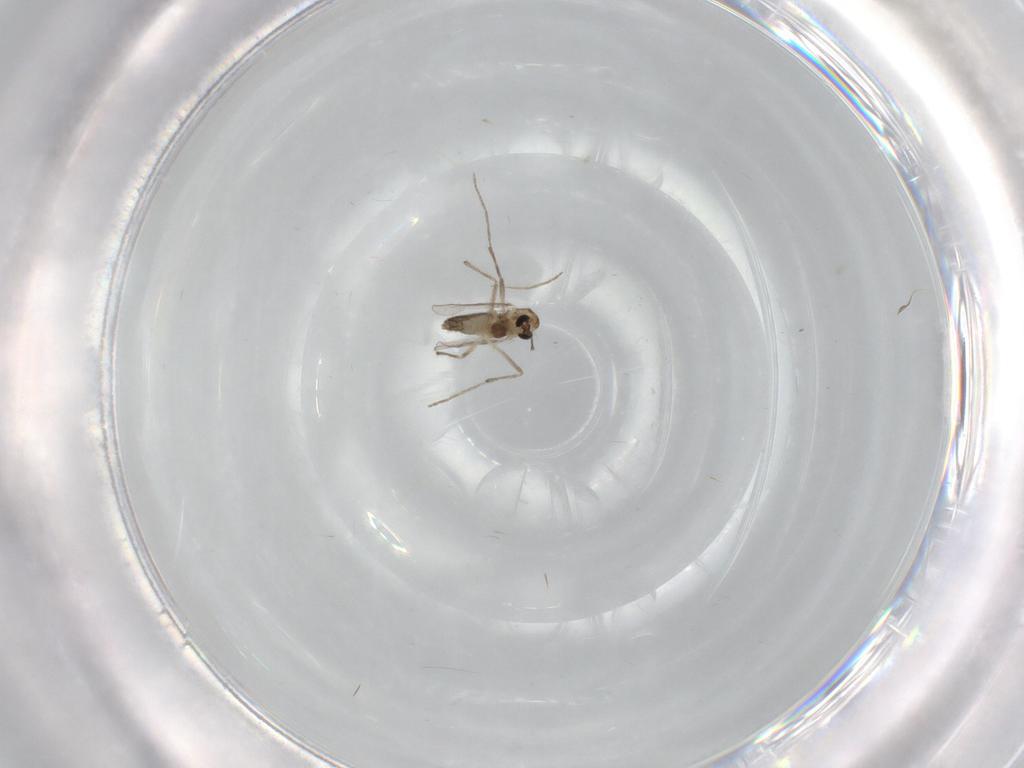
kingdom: Animalia
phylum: Arthropoda
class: Insecta
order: Diptera
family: Chironomidae
